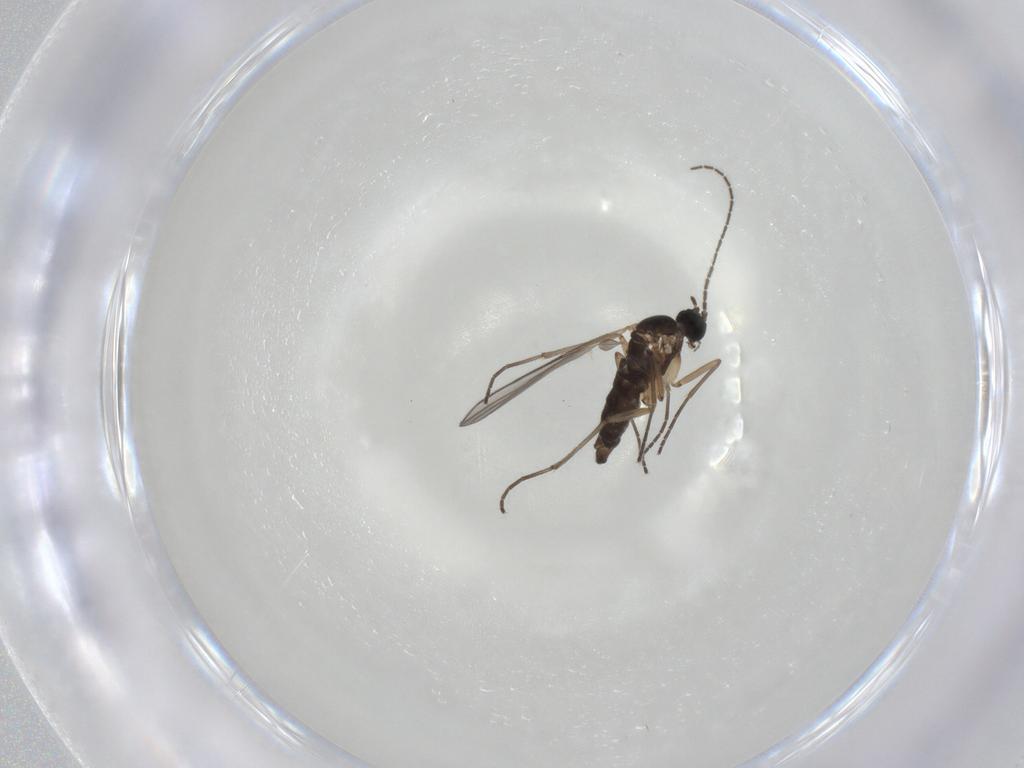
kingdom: Animalia
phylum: Arthropoda
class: Insecta
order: Diptera
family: Sciaridae
